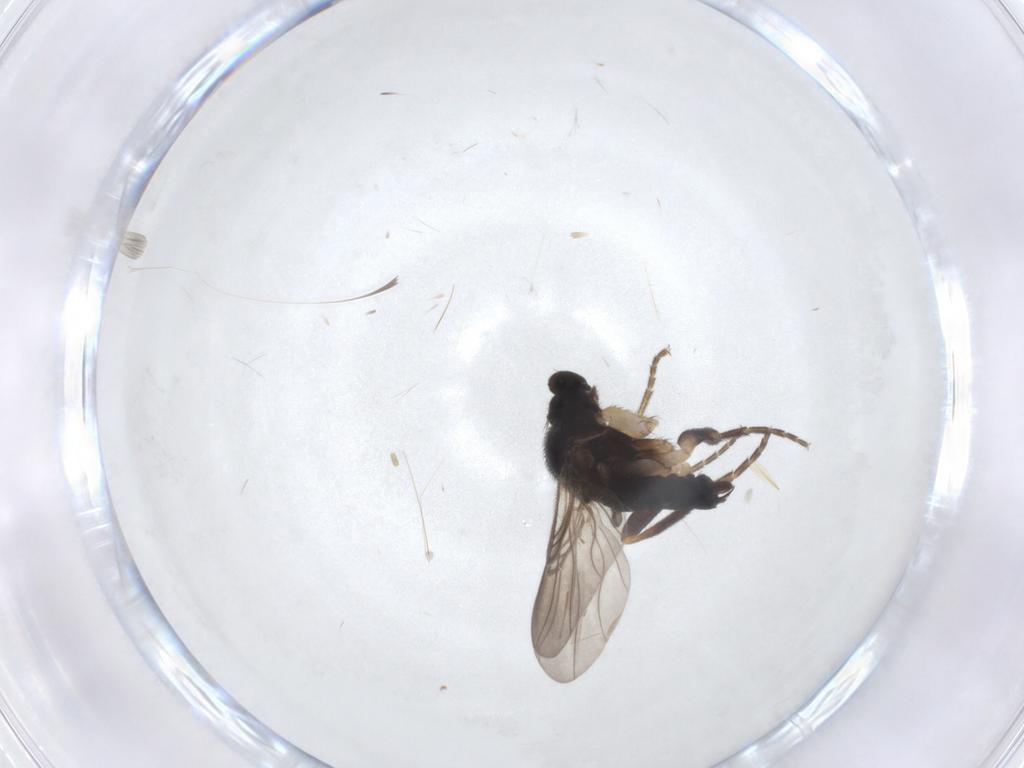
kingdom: Animalia
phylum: Arthropoda
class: Insecta
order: Diptera
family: Phoridae
